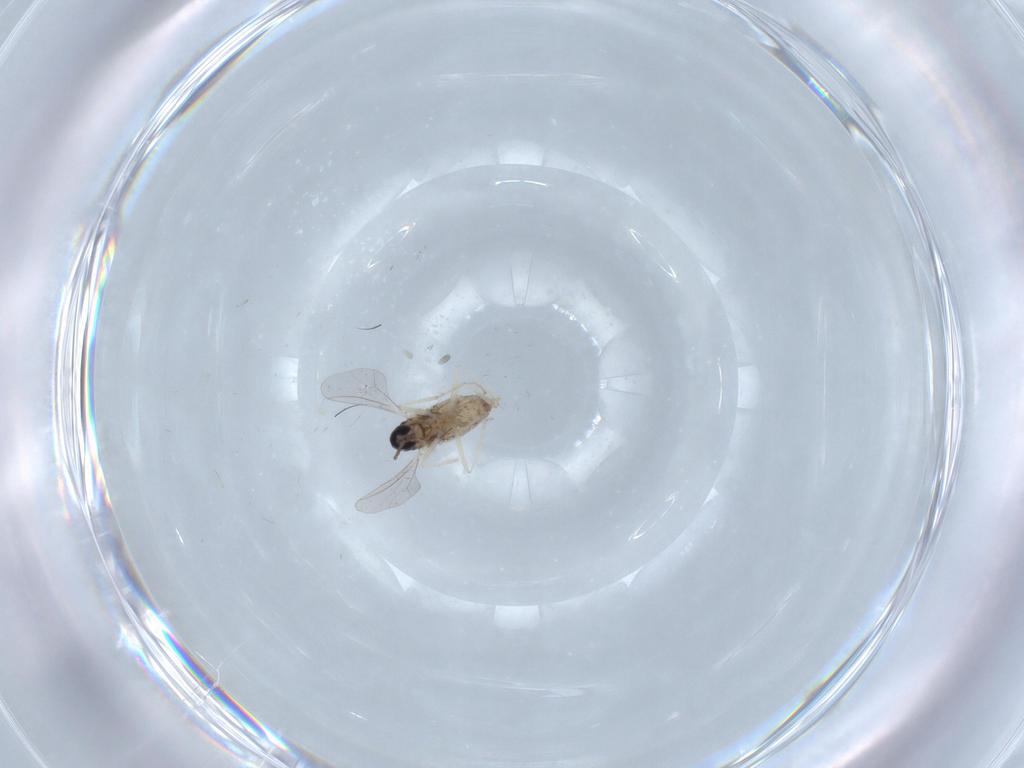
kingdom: Animalia
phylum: Arthropoda
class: Insecta
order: Diptera
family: Cecidomyiidae
